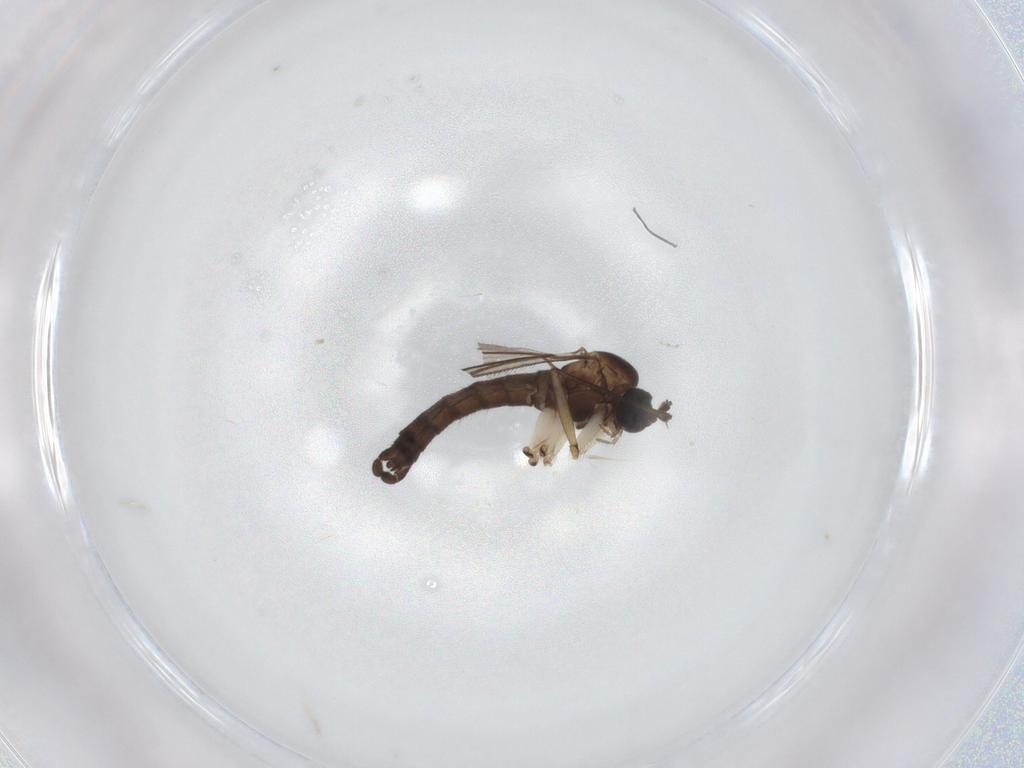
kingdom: Animalia
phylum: Arthropoda
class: Insecta
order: Diptera
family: Sciaridae
